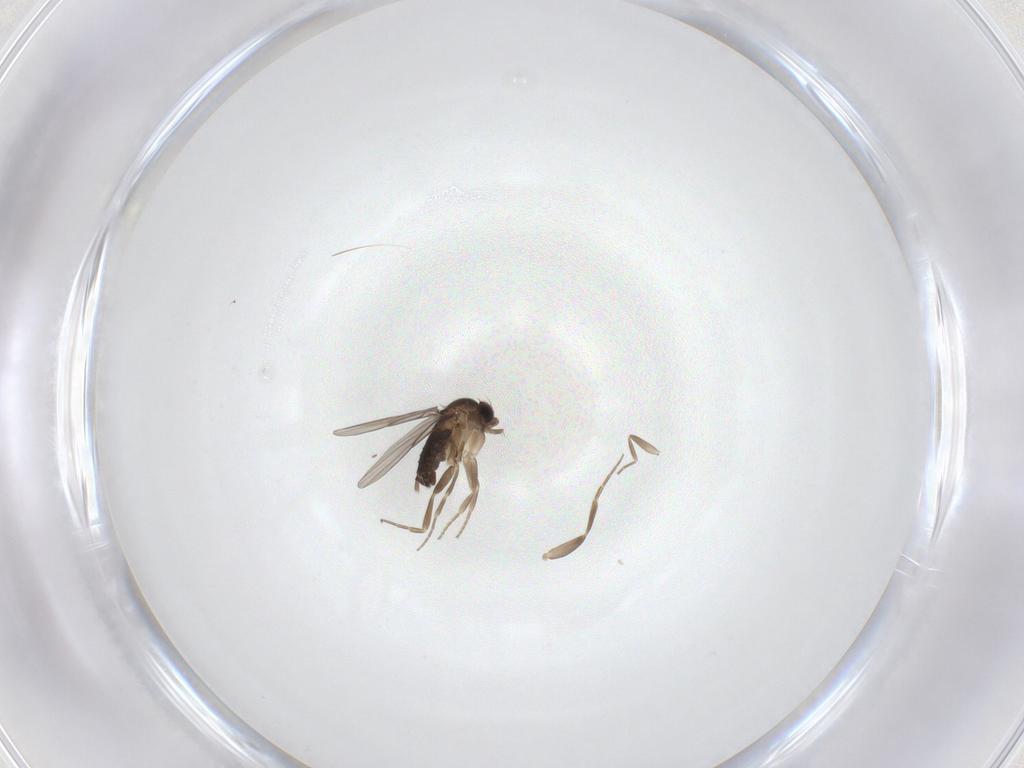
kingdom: Animalia
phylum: Arthropoda
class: Insecta
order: Diptera
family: Phoridae
